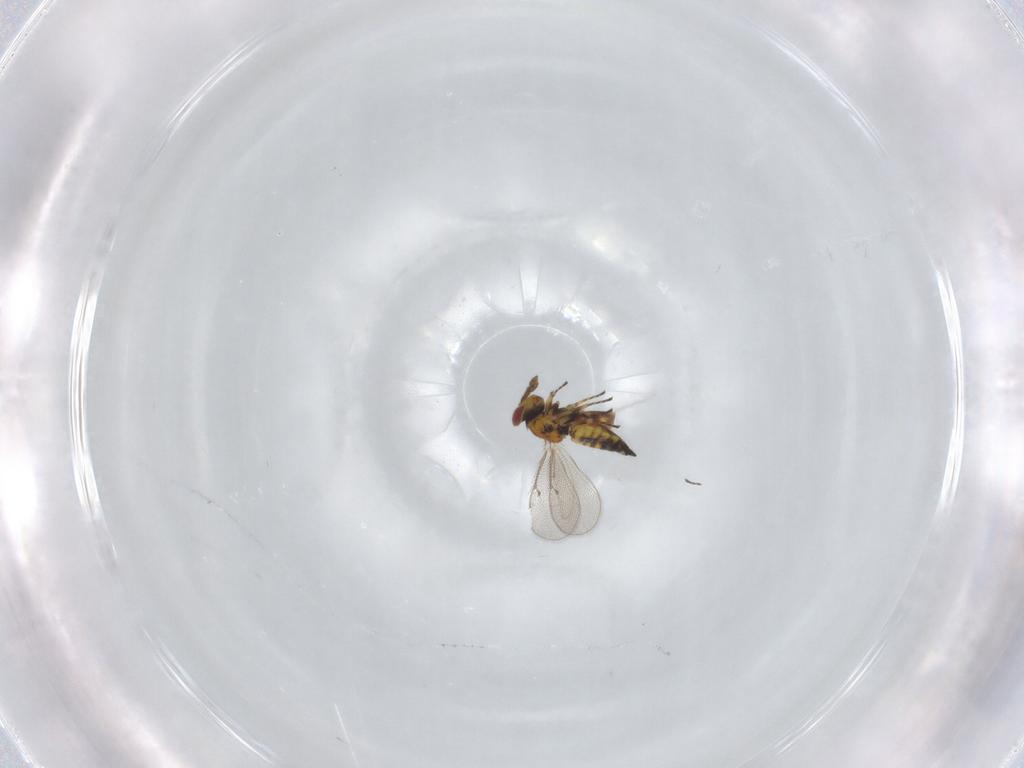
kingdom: Animalia
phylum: Arthropoda
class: Insecta
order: Hymenoptera
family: Eulophidae
